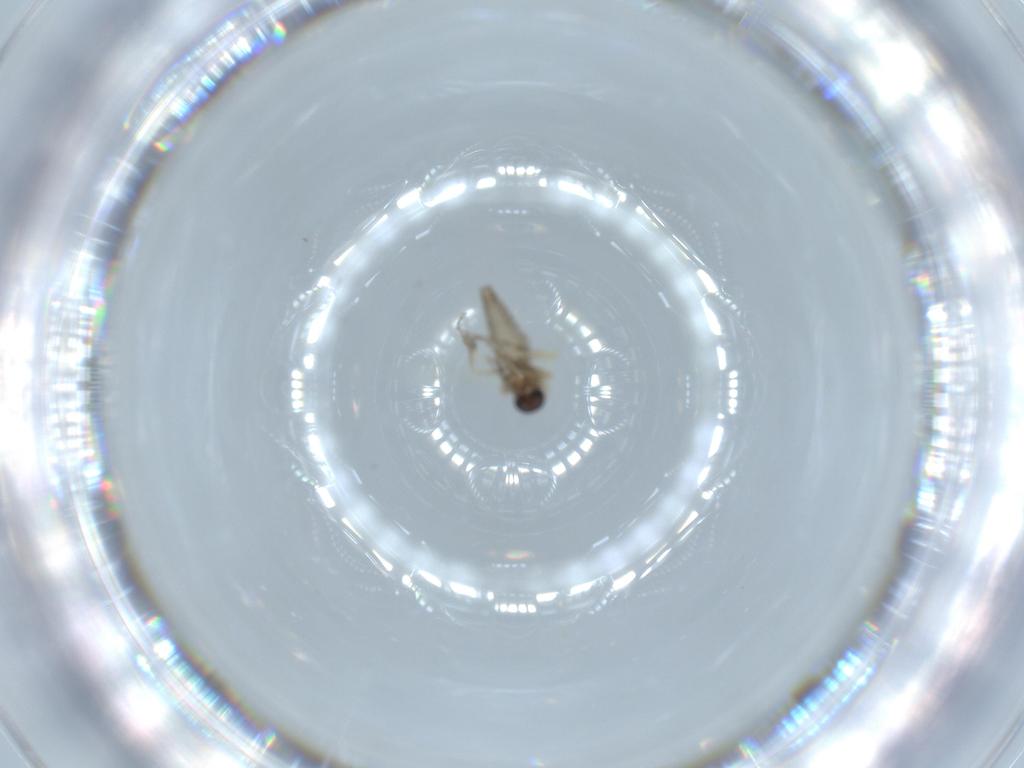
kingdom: Animalia
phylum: Arthropoda
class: Insecta
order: Diptera
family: Ceratopogonidae
